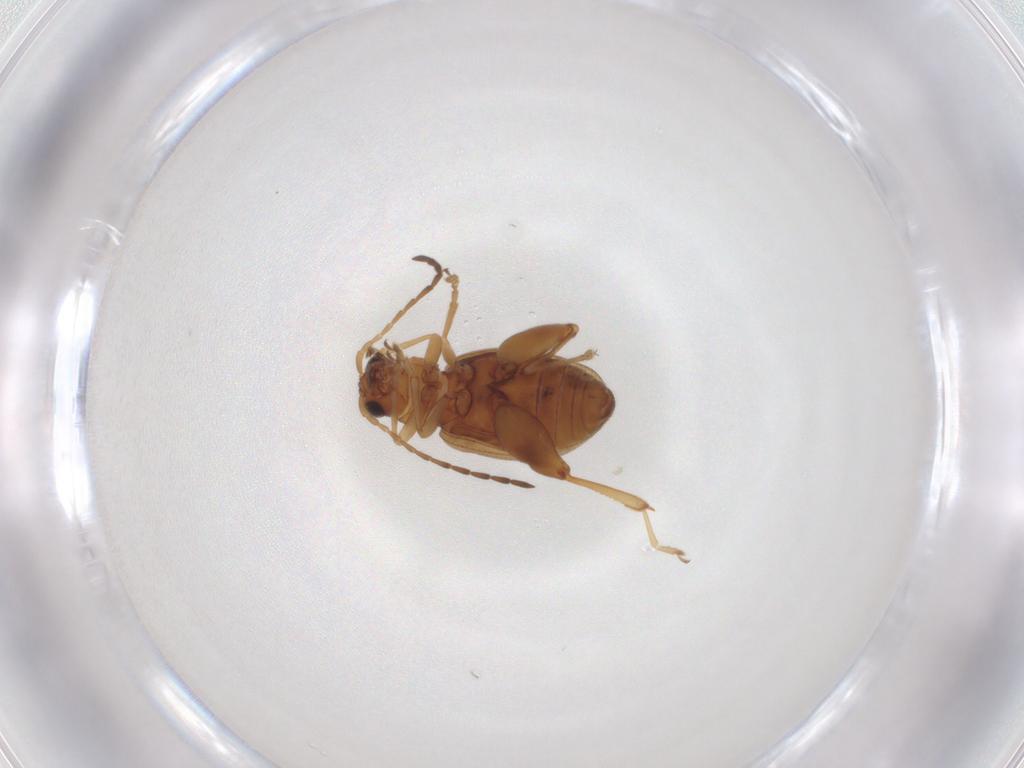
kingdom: Animalia
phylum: Arthropoda
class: Insecta
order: Coleoptera
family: Chrysomelidae
